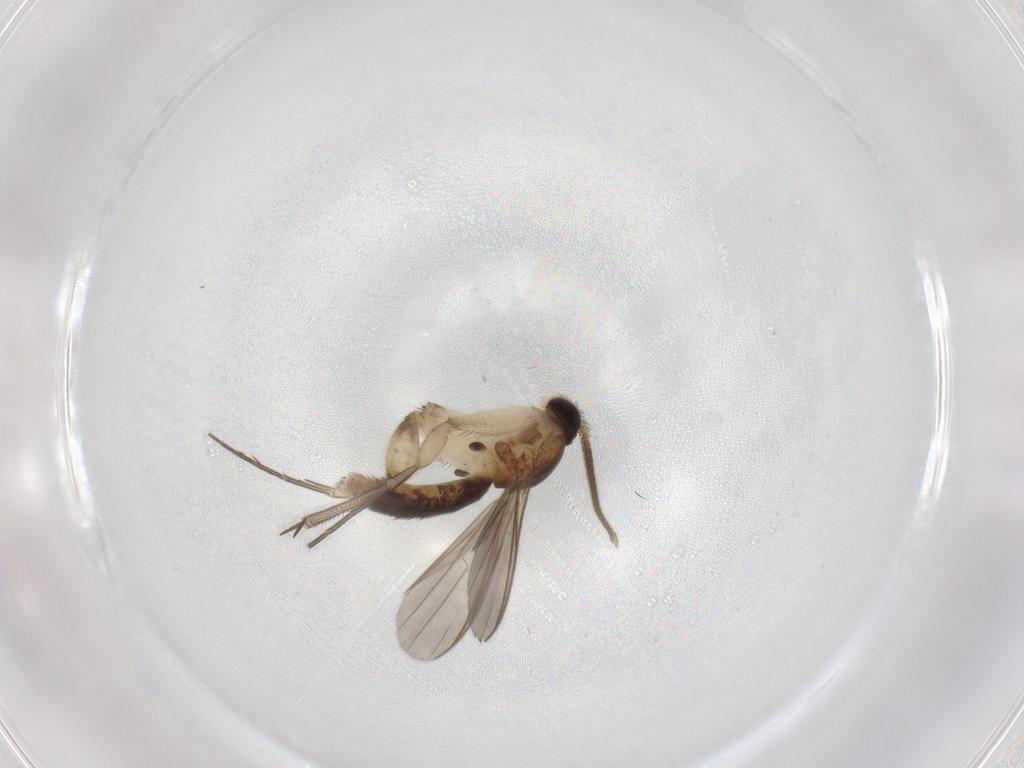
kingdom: Animalia
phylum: Arthropoda
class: Insecta
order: Diptera
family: Mycetophilidae
